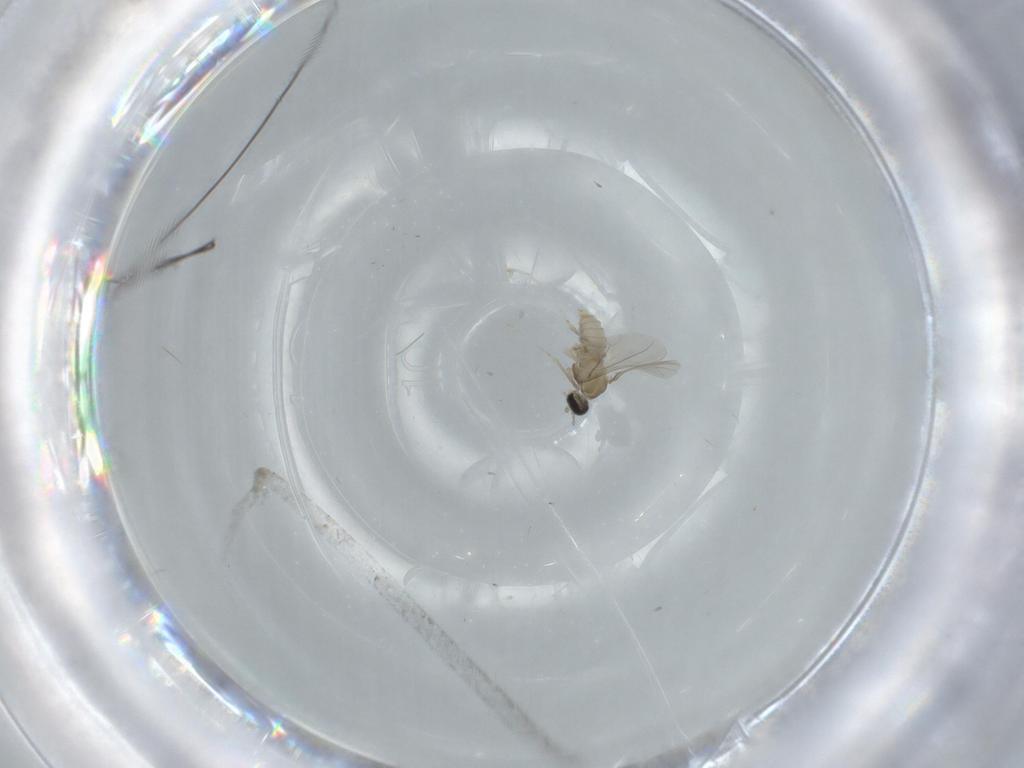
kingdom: Animalia
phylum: Arthropoda
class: Insecta
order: Diptera
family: Cecidomyiidae
